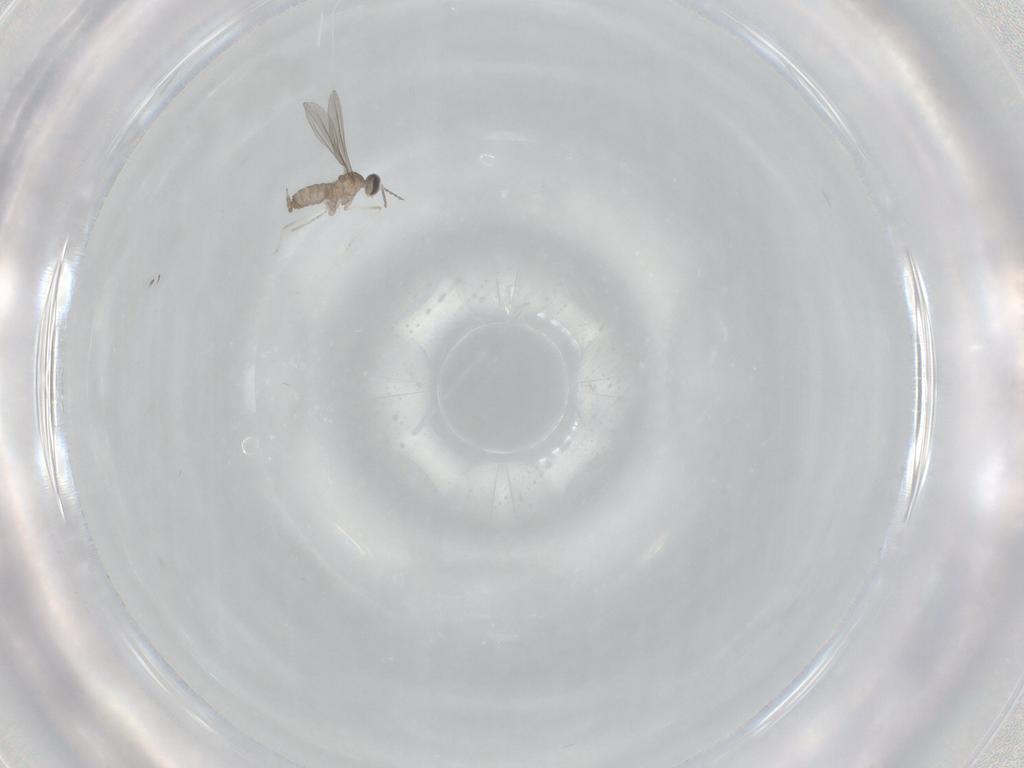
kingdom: Animalia
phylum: Arthropoda
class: Insecta
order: Diptera
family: Cecidomyiidae
